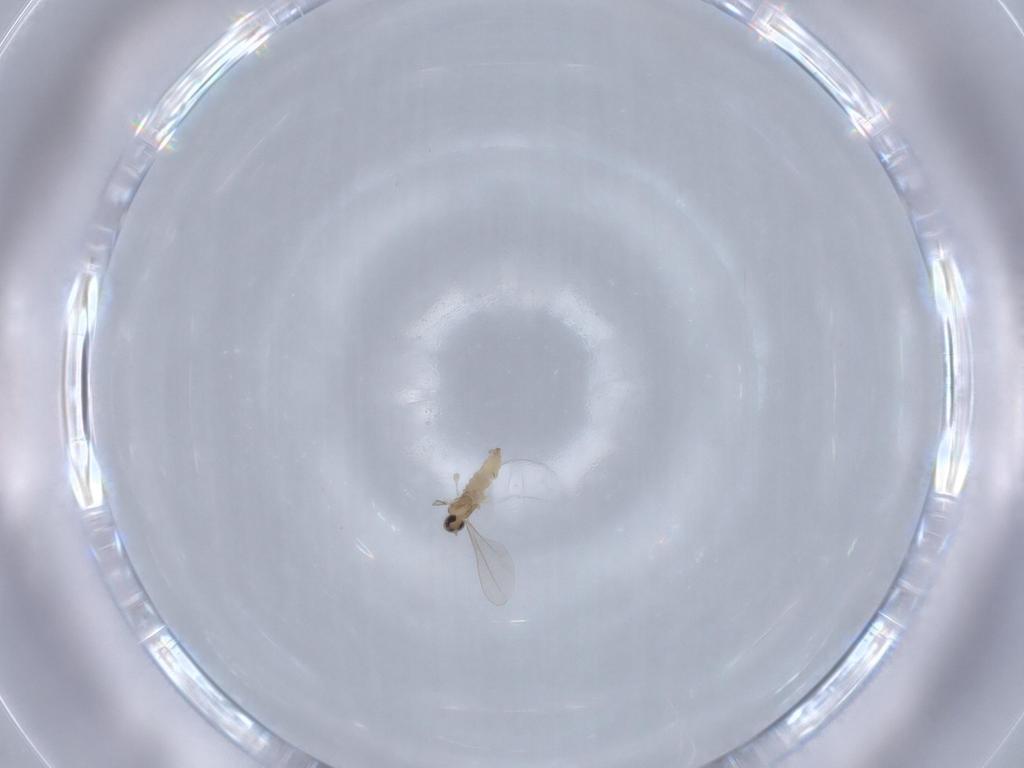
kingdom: Animalia
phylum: Arthropoda
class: Insecta
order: Diptera
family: Cecidomyiidae
